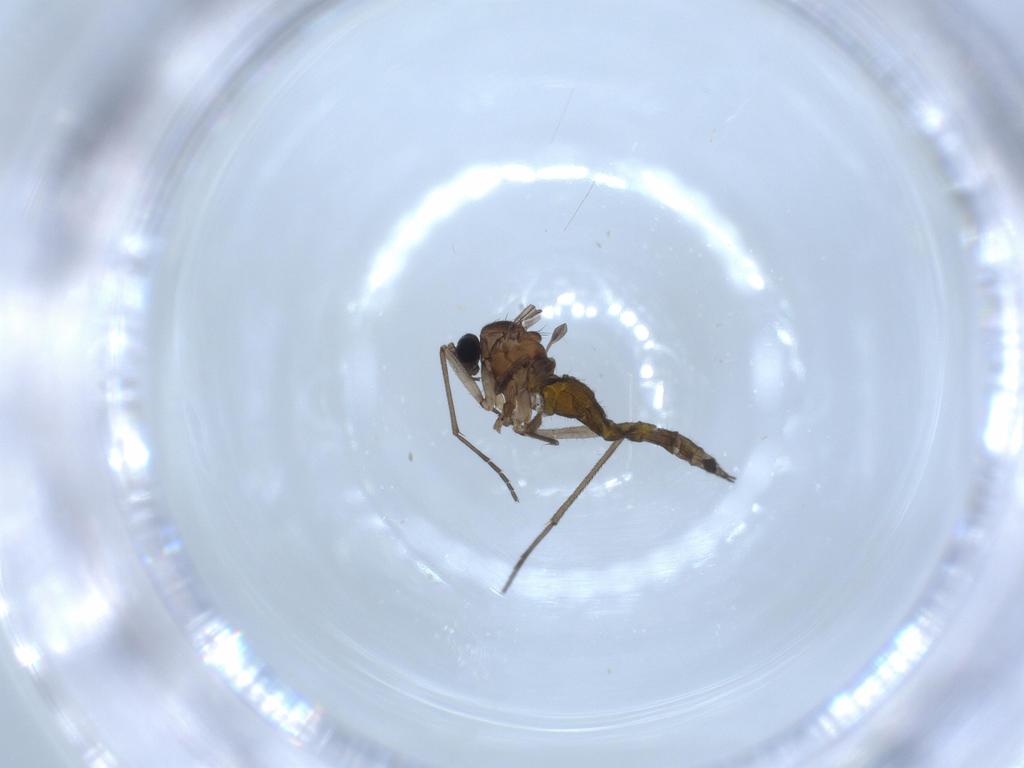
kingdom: Animalia
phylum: Arthropoda
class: Insecta
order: Diptera
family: Sciaridae
